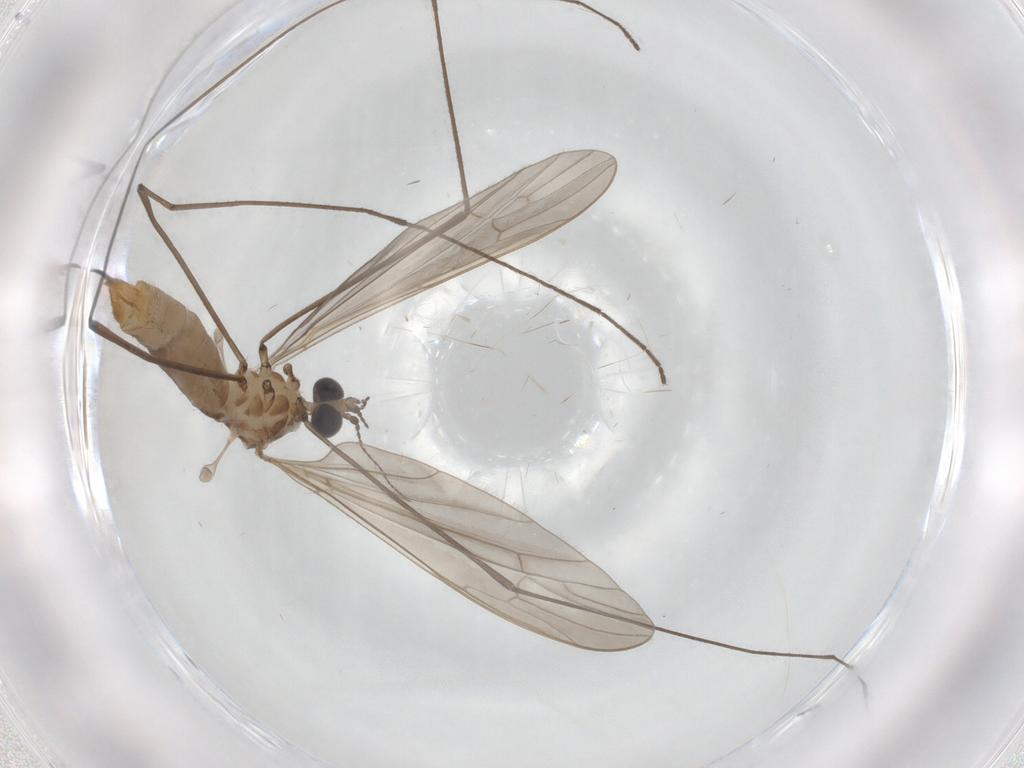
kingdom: Animalia
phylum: Arthropoda
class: Insecta
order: Diptera
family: Limoniidae
